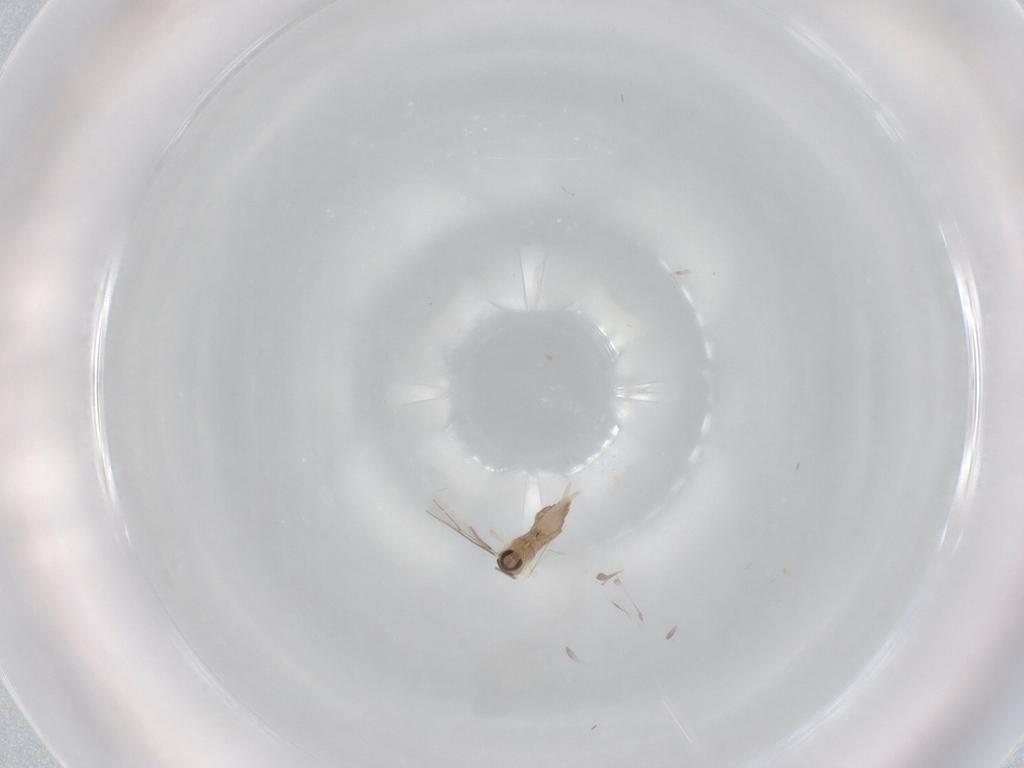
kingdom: Animalia
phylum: Arthropoda
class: Insecta
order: Diptera
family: Cecidomyiidae
